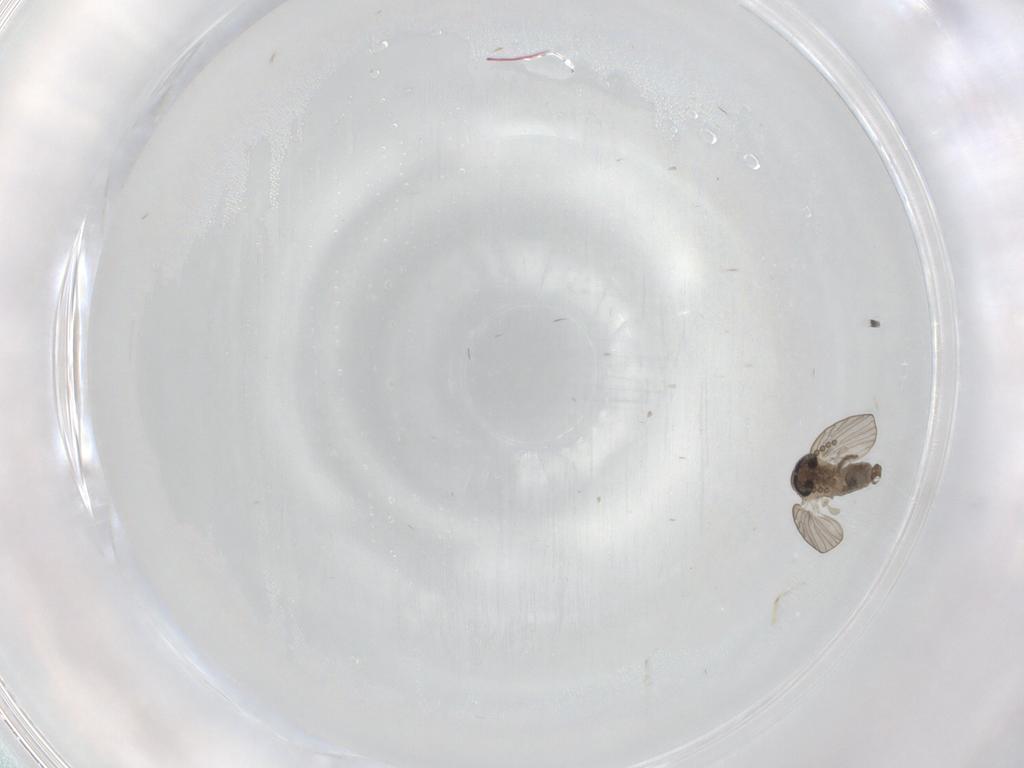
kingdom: Animalia
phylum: Arthropoda
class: Insecta
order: Diptera
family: Psychodidae
